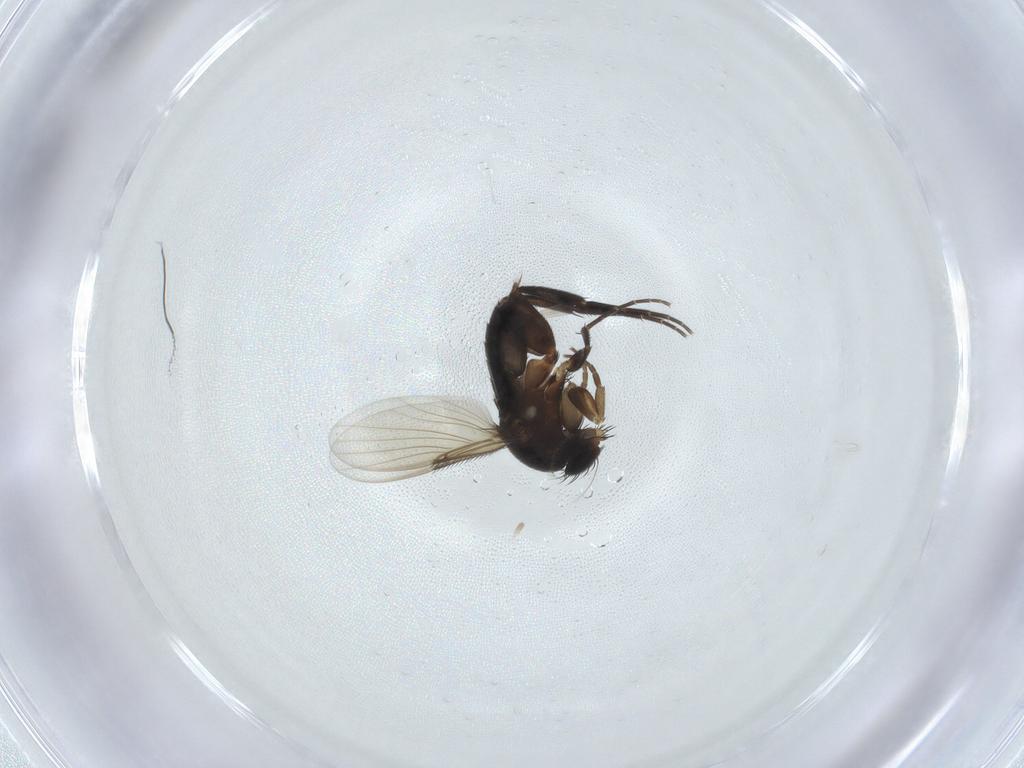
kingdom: Animalia
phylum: Arthropoda
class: Insecta
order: Diptera
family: Phoridae
